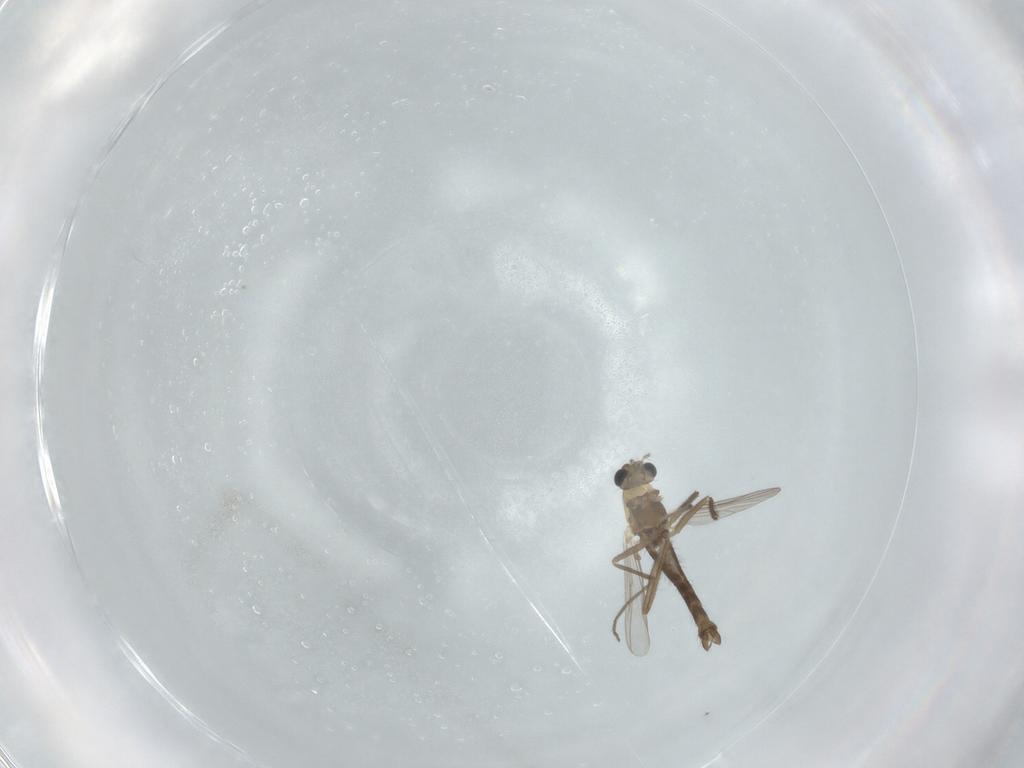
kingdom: Animalia
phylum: Arthropoda
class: Insecta
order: Diptera
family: Chironomidae
